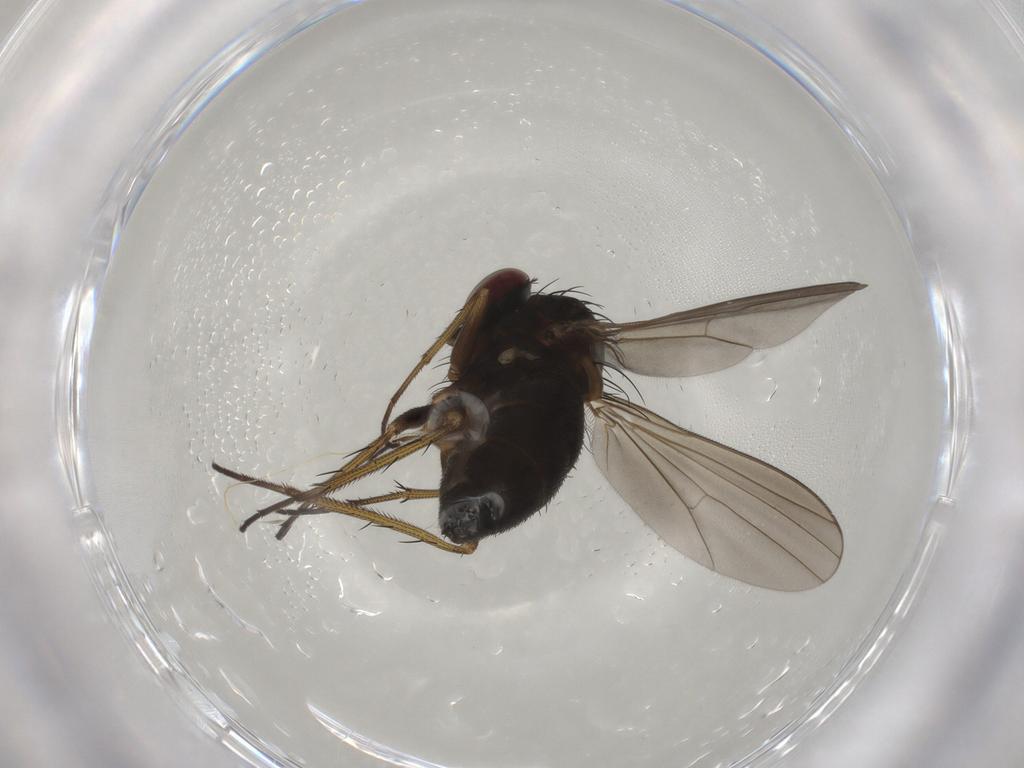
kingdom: Animalia
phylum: Arthropoda
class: Insecta
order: Diptera
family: Dolichopodidae
